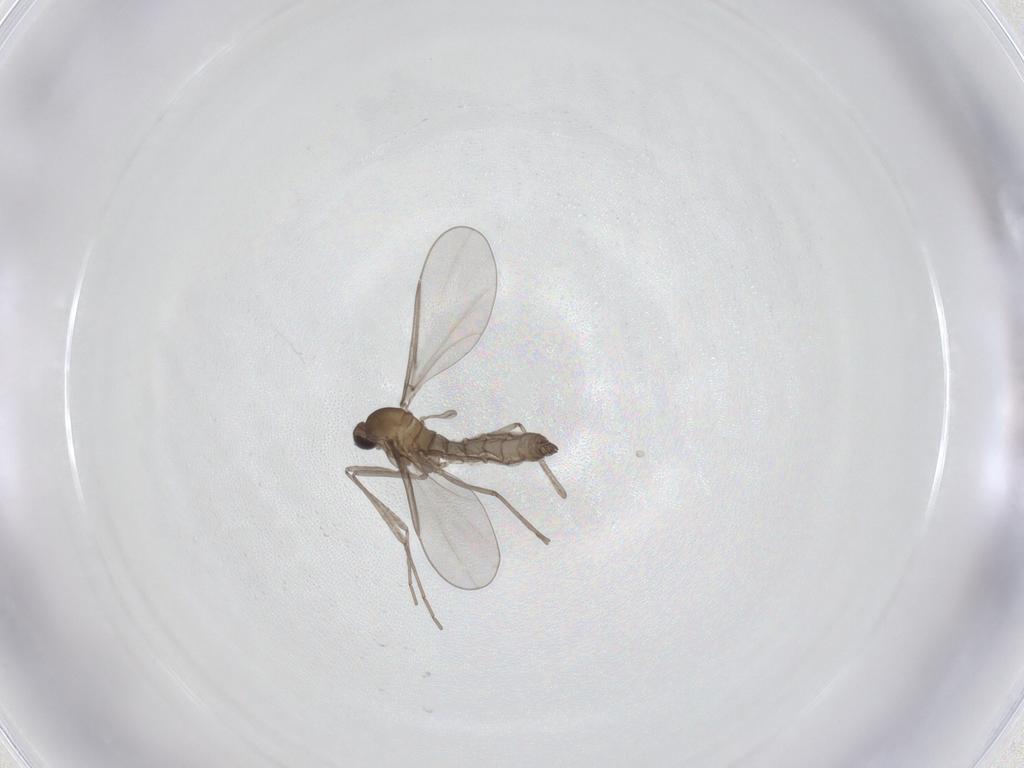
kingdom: Animalia
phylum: Arthropoda
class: Insecta
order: Diptera
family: Cecidomyiidae
